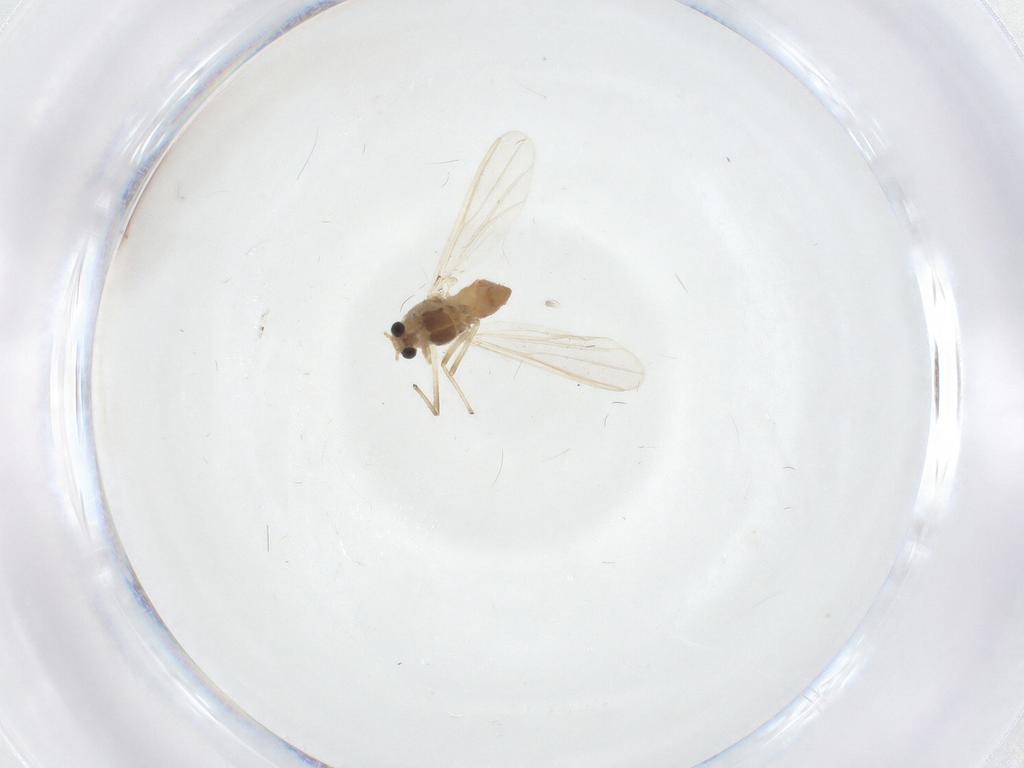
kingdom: Animalia
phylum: Arthropoda
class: Insecta
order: Diptera
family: Chironomidae
